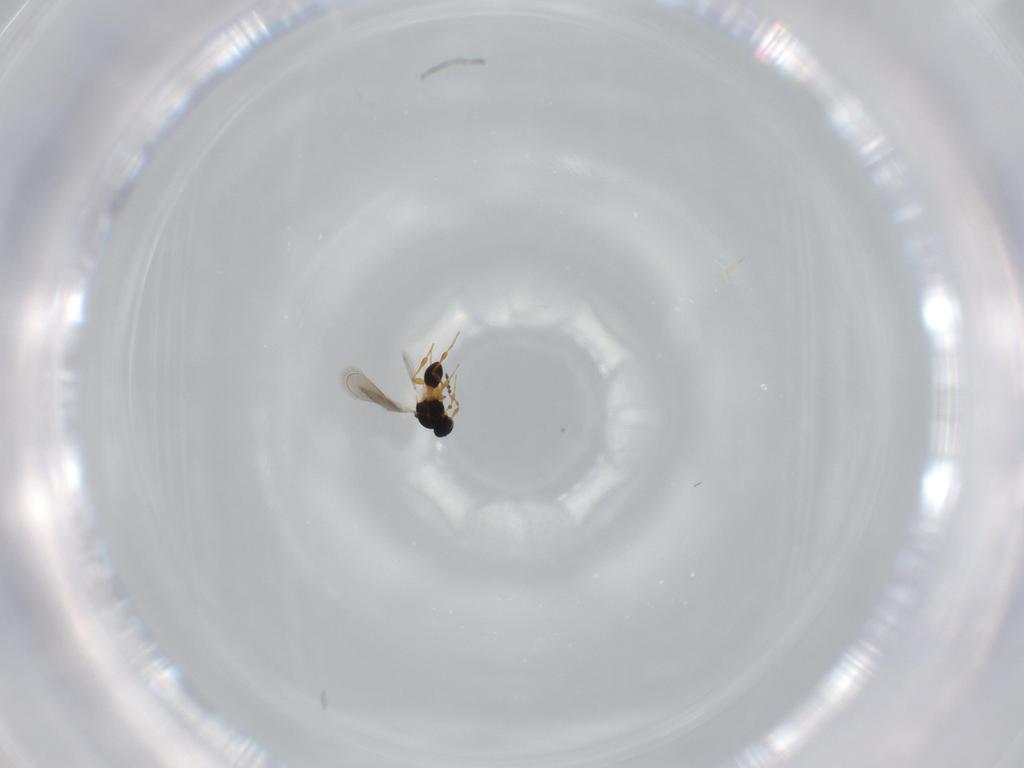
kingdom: Animalia
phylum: Arthropoda
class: Insecta
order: Hymenoptera
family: Platygastridae
